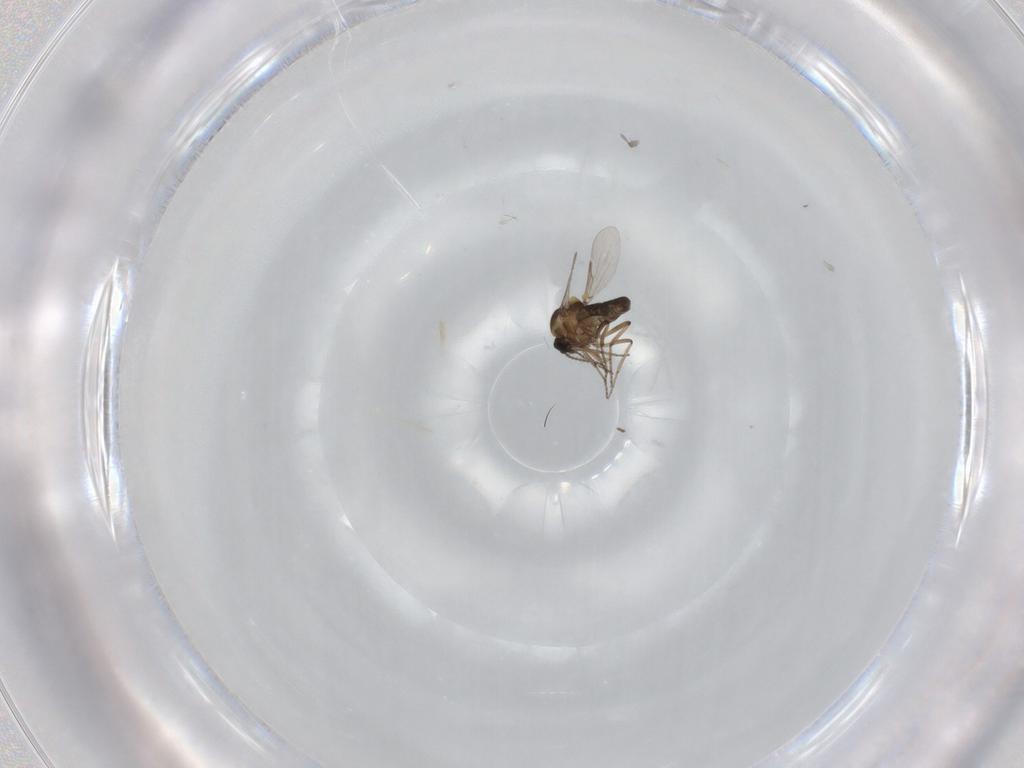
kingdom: Animalia
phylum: Arthropoda
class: Insecta
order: Diptera
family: Ceratopogonidae
